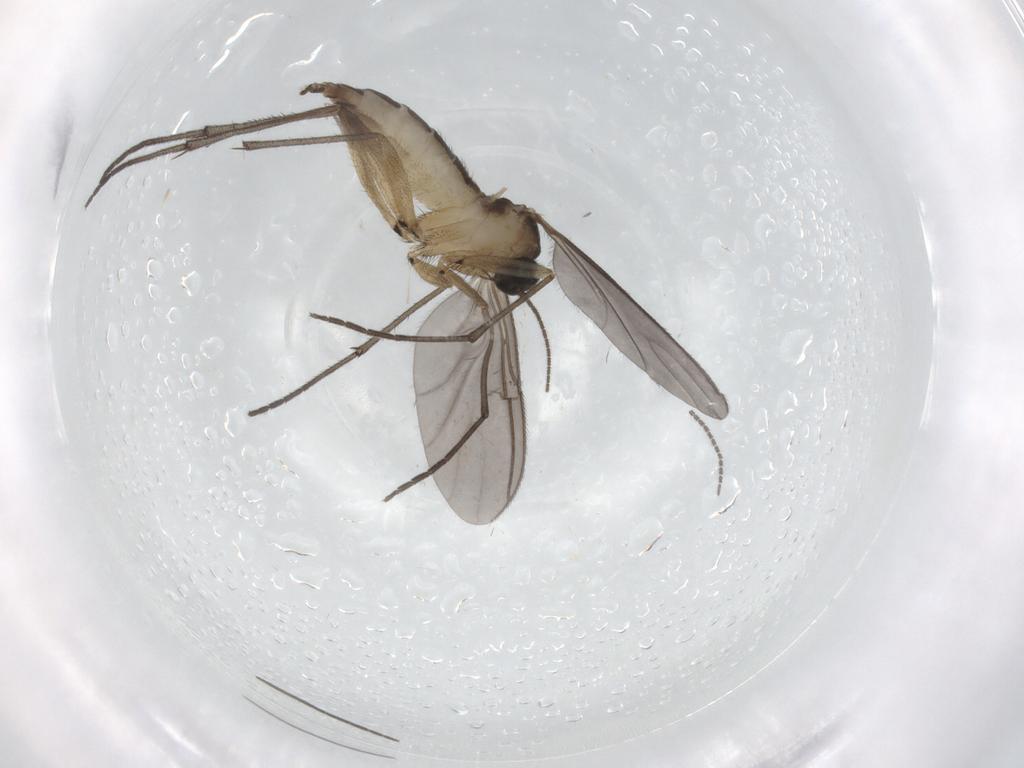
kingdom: Animalia
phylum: Arthropoda
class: Insecta
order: Diptera
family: Sciaridae
